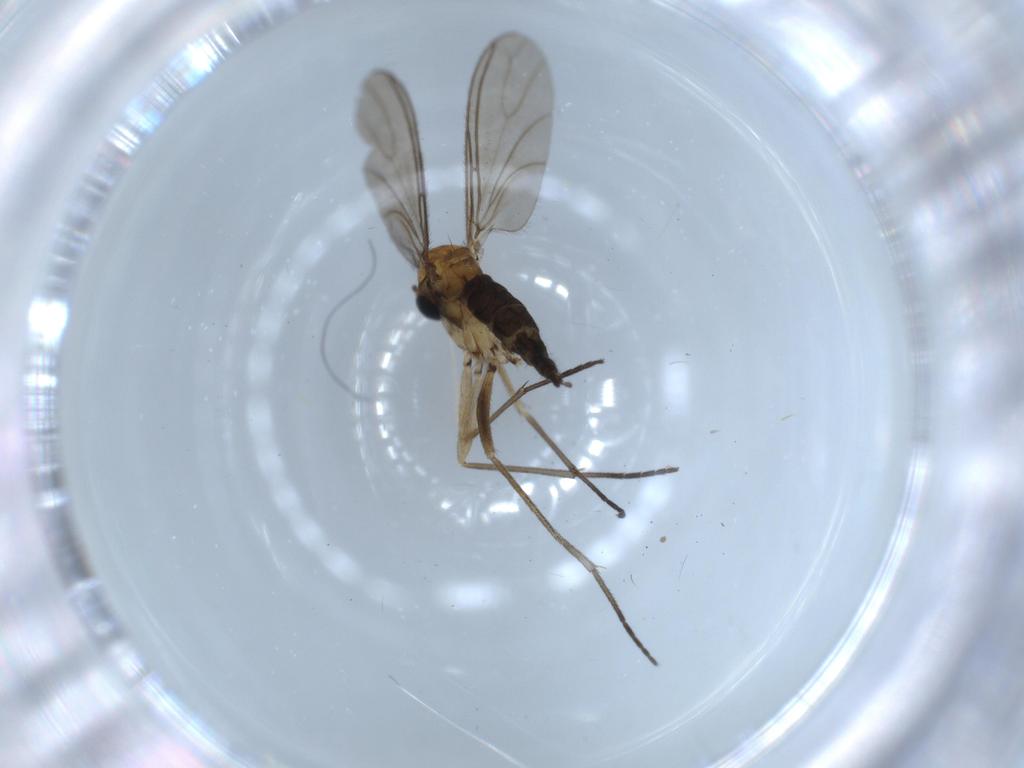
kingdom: Animalia
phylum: Arthropoda
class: Insecta
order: Diptera
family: Sciaridae
